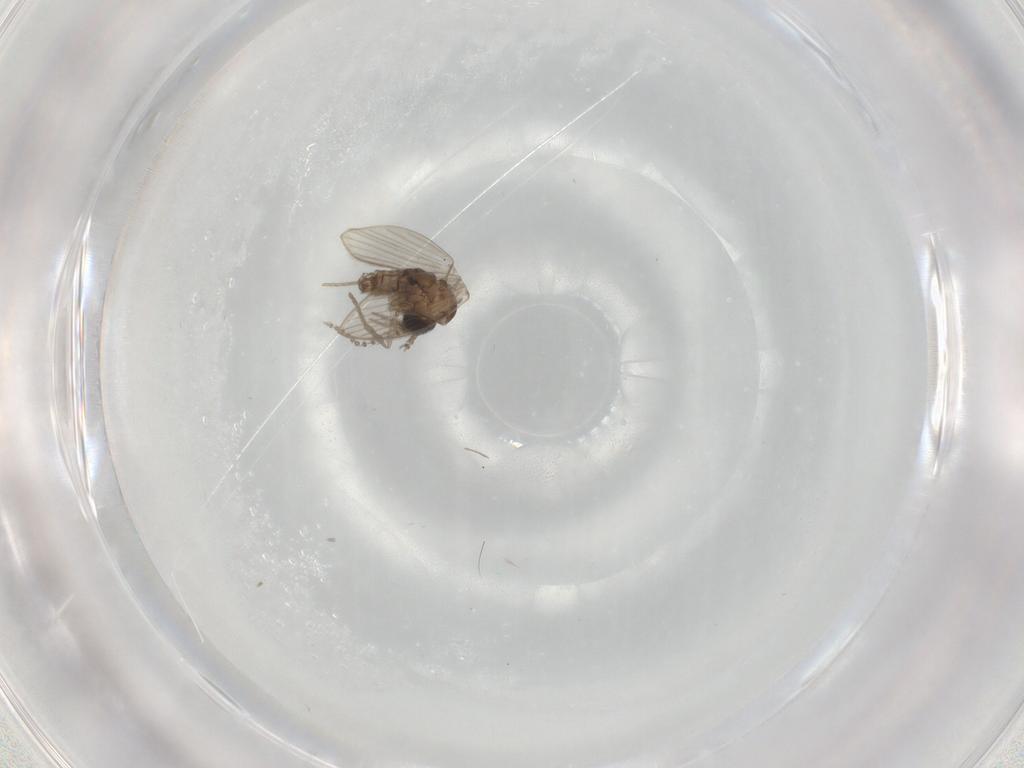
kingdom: Animalia
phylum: Arthropoda
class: Insecta
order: Diptera
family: Psychodidae
